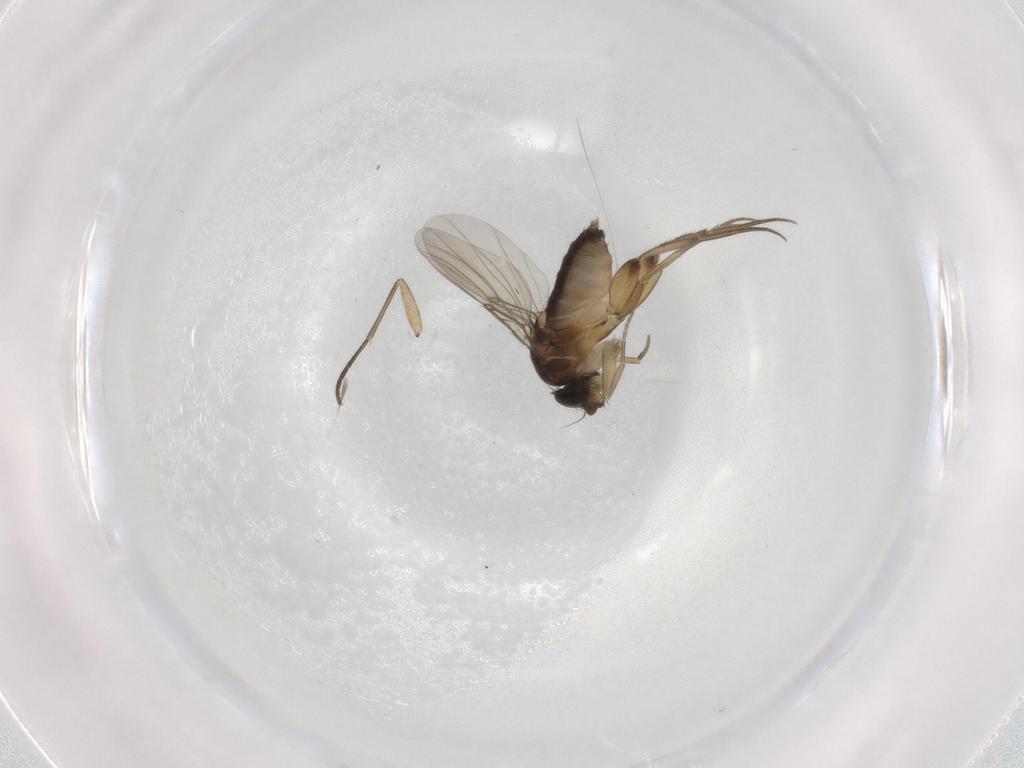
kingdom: Animalia
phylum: Arthropoda
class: Insecta
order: Diptera
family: Phoridae
